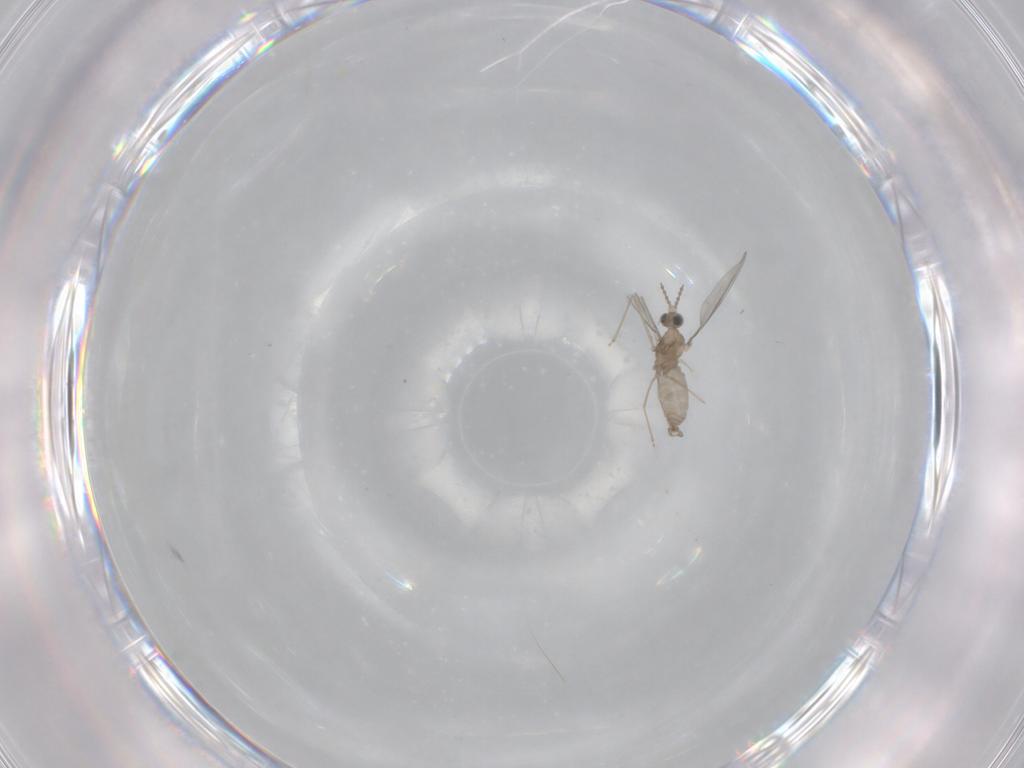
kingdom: Animalia
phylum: Arthropoda
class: Insecta
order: Diptera
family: Cecidomyiidae
